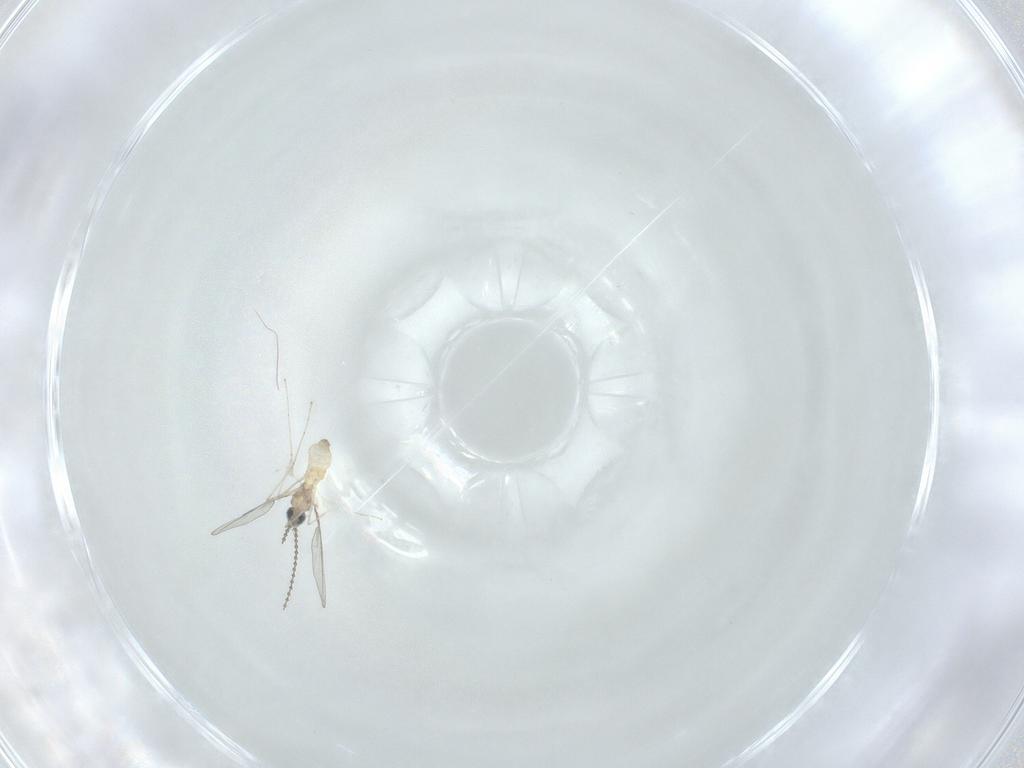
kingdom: Animalia
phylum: Arthropoda
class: Insecta
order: Diptera
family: Cecidomyiidae
